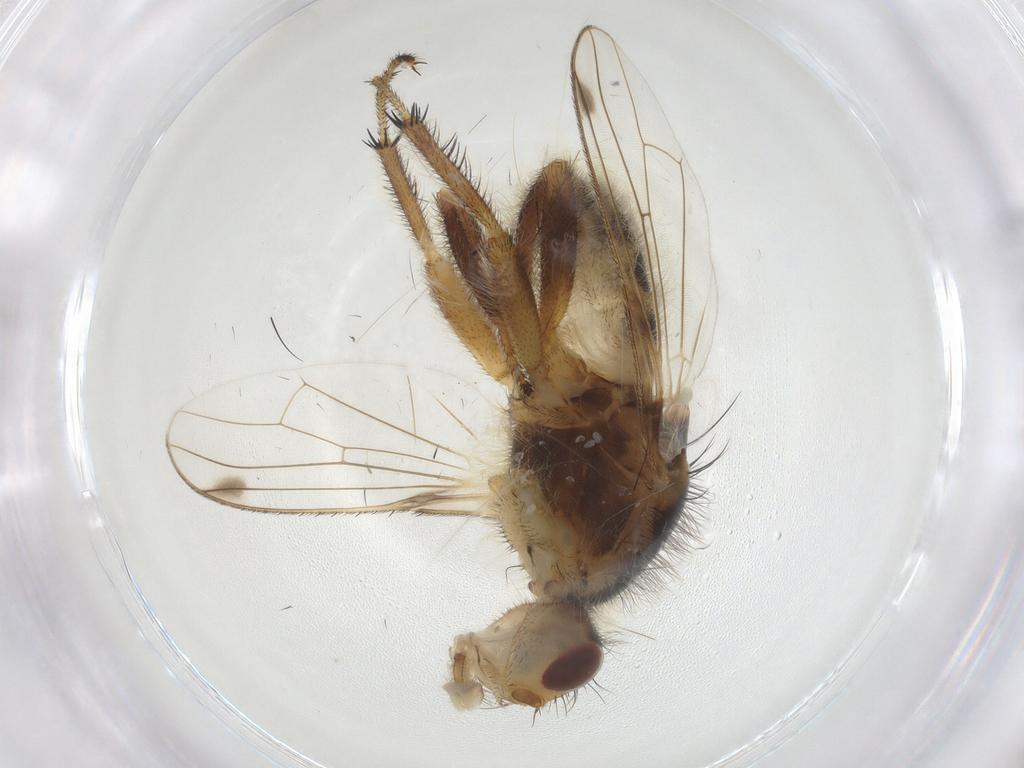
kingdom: Animalia
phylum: Arthropoda
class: Insecta
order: Diptera
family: Richardiidae
